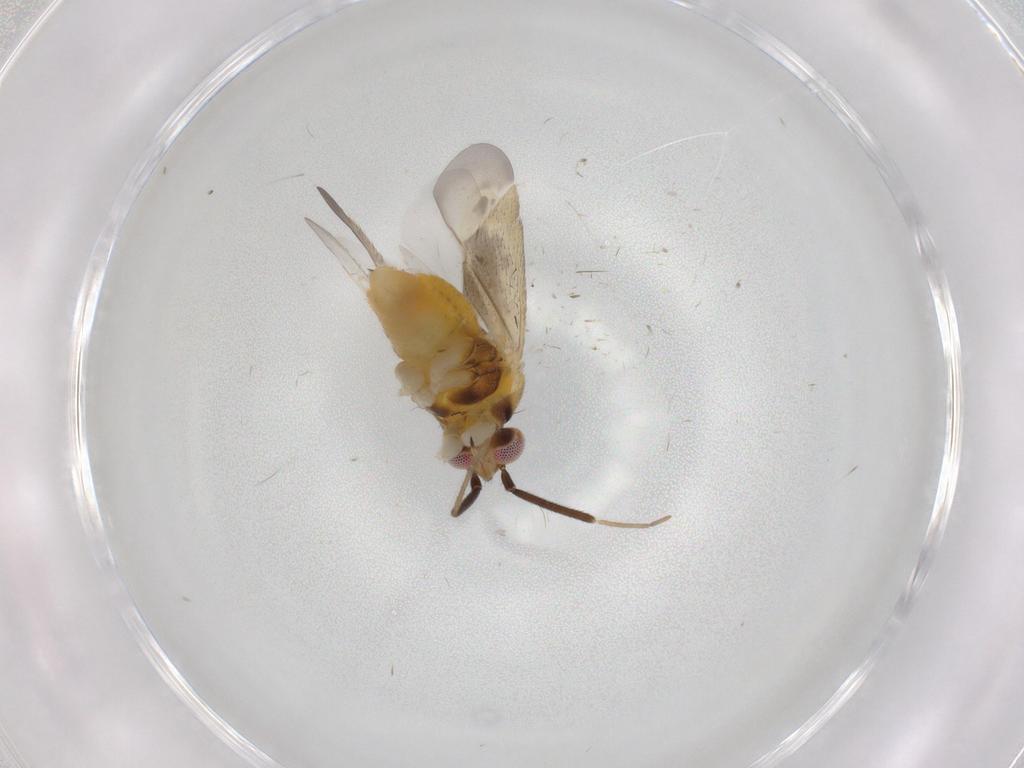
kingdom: Animalia
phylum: Arthropoda
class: Insecta
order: Hemiptera
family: Miridae
